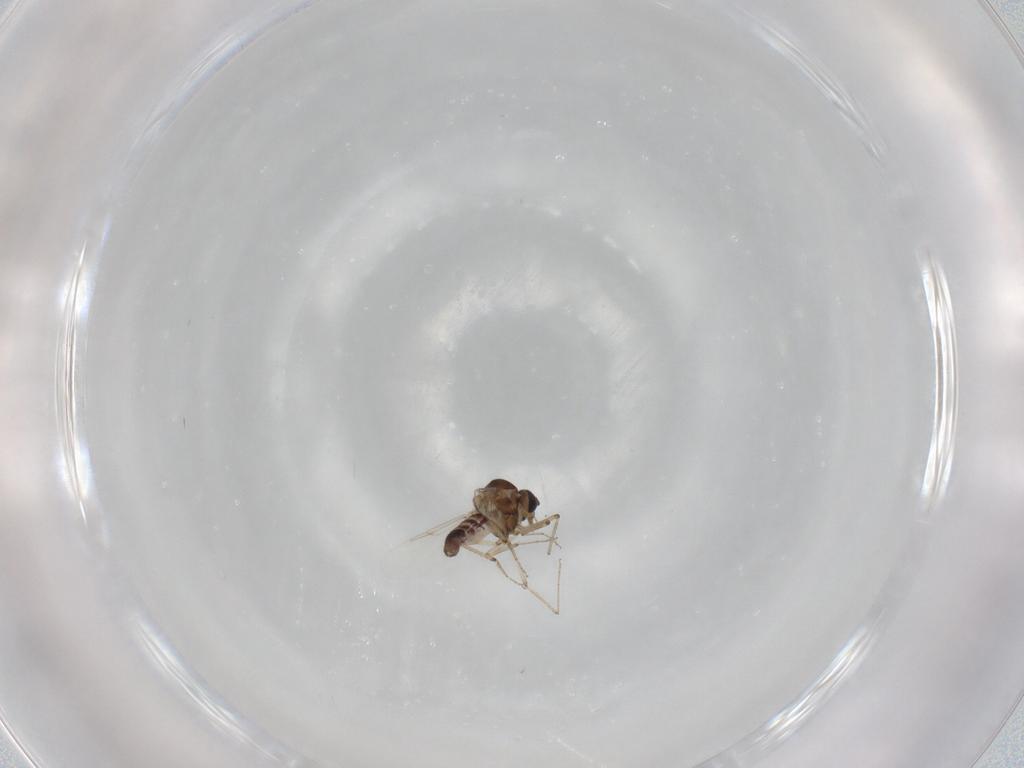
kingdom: Animalia
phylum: Arthropoda
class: Insecta
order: Diptera
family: Ceratopogonidae
